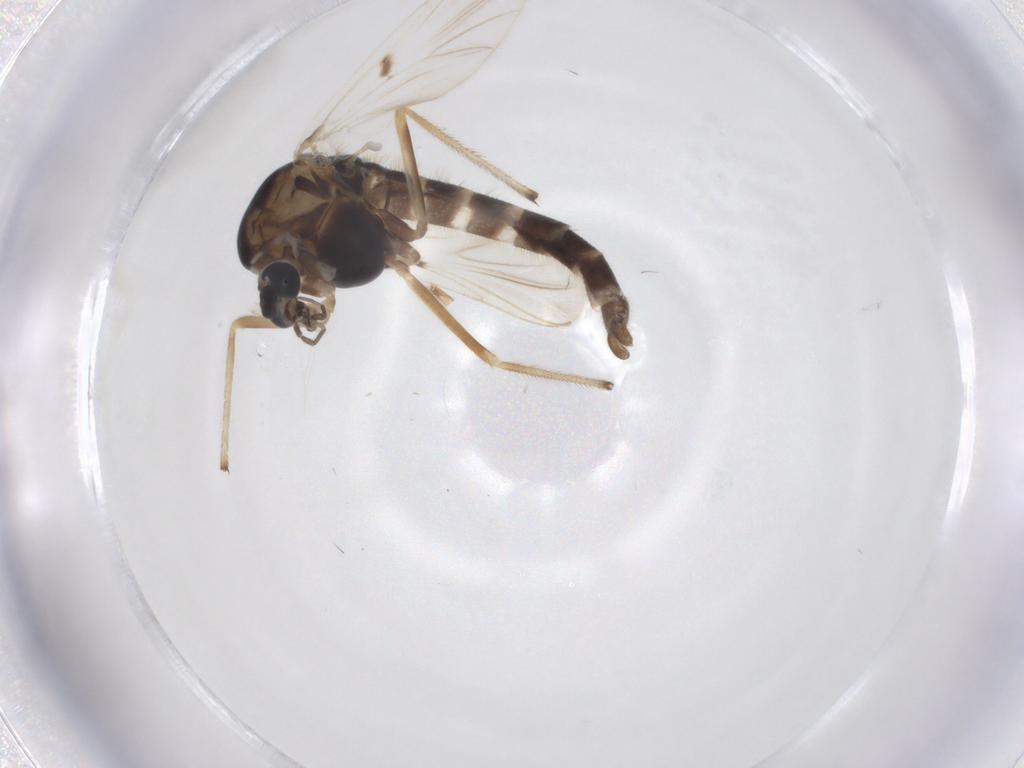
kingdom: Animalia
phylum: Arthropoda
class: Insecta
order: Diptera
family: Chironomidae
